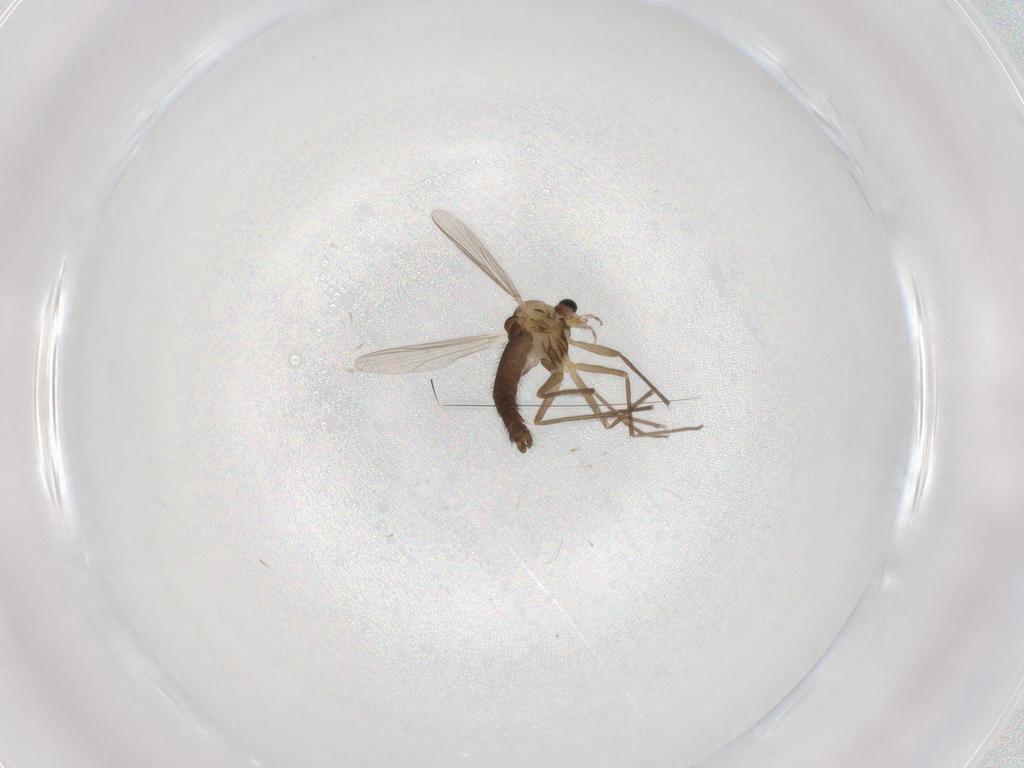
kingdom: Animalia
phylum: Arthropoda
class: Insecta
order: Diptera
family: Chironomidae
